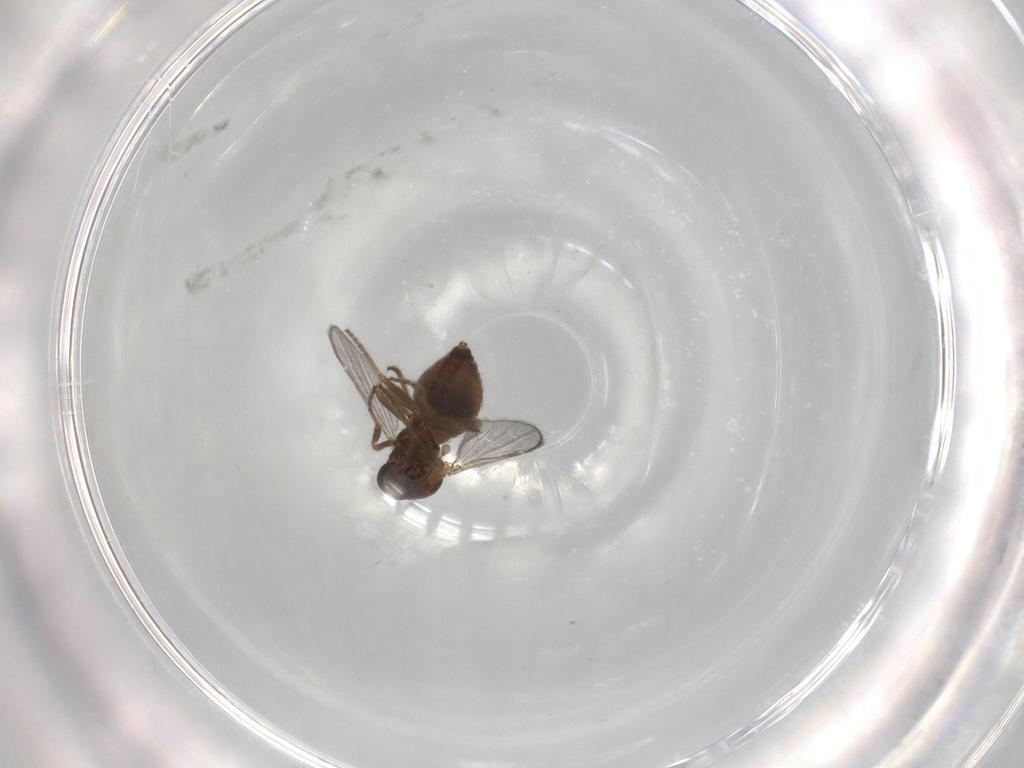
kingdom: Animalia
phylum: Arthropoda
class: Insecta
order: Diptera
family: Ceratopogonidae
